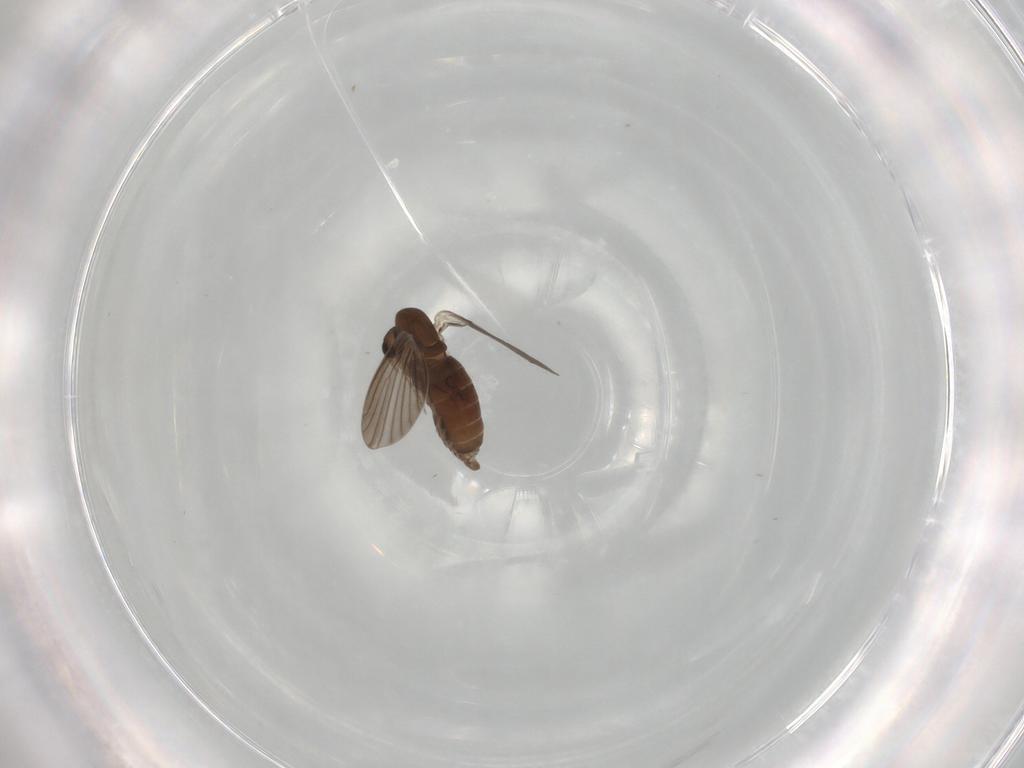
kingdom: Animalia
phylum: Arthropoda
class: Insecta
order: Diptera
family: Psychodidae
